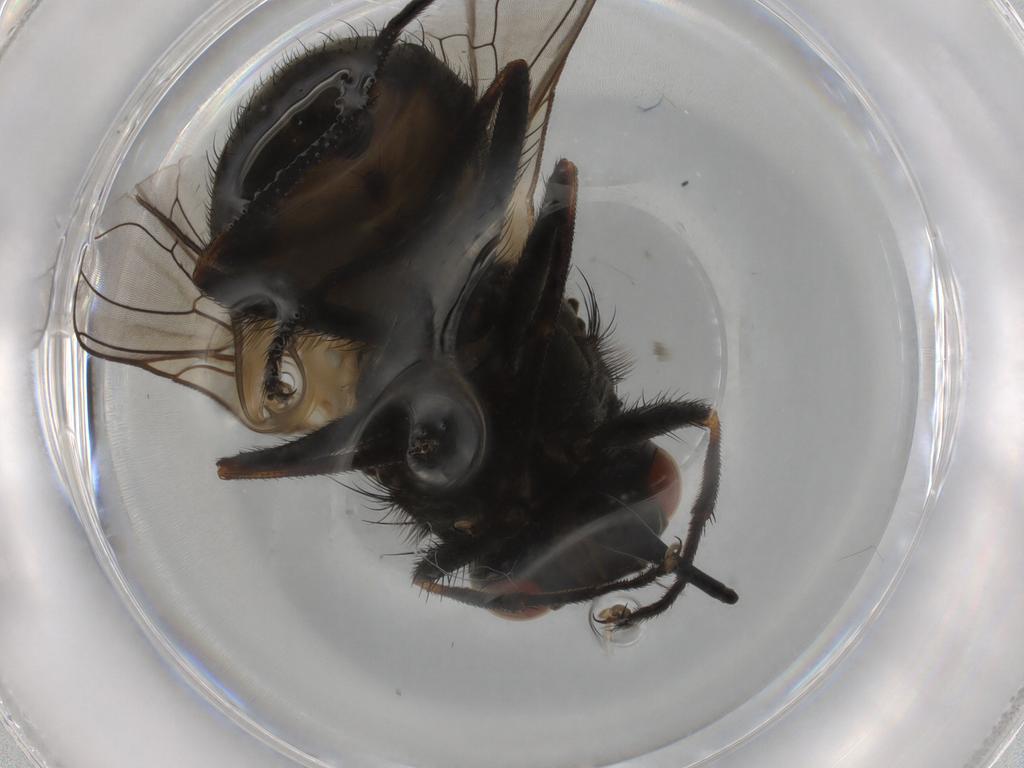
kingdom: Animalia
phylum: Arthropoda
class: Insecta
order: Diptera
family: Muscidae
